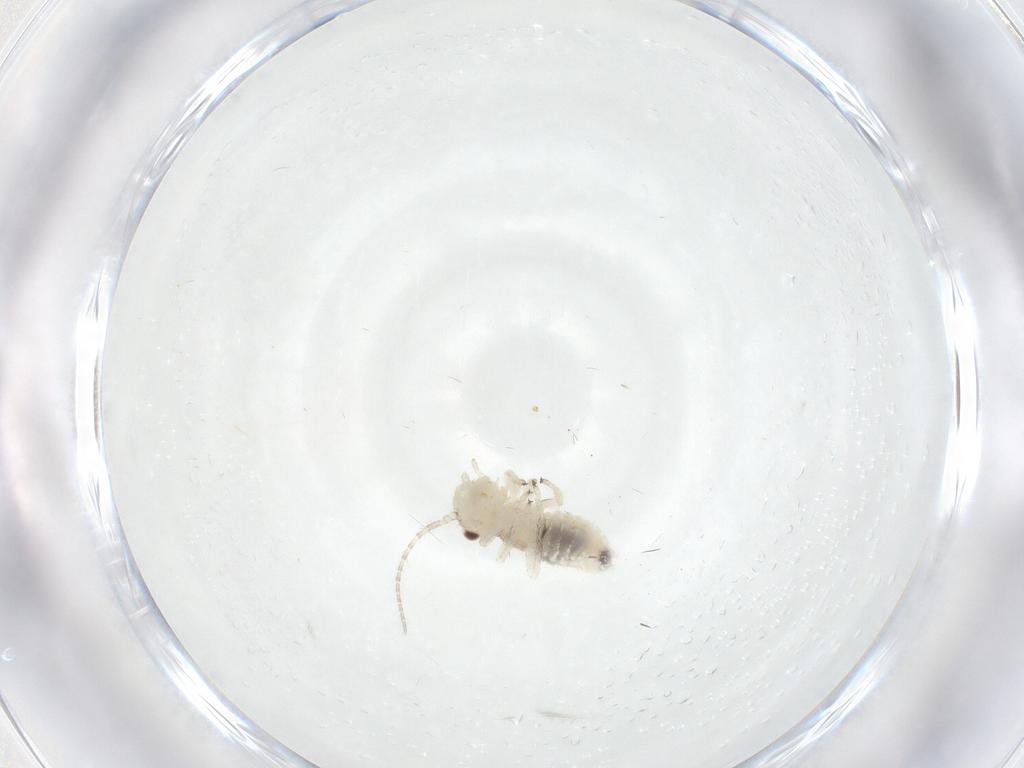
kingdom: Animalia
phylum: Arthropoda
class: Insecta
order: Psocodea
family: Amphipsocidae
